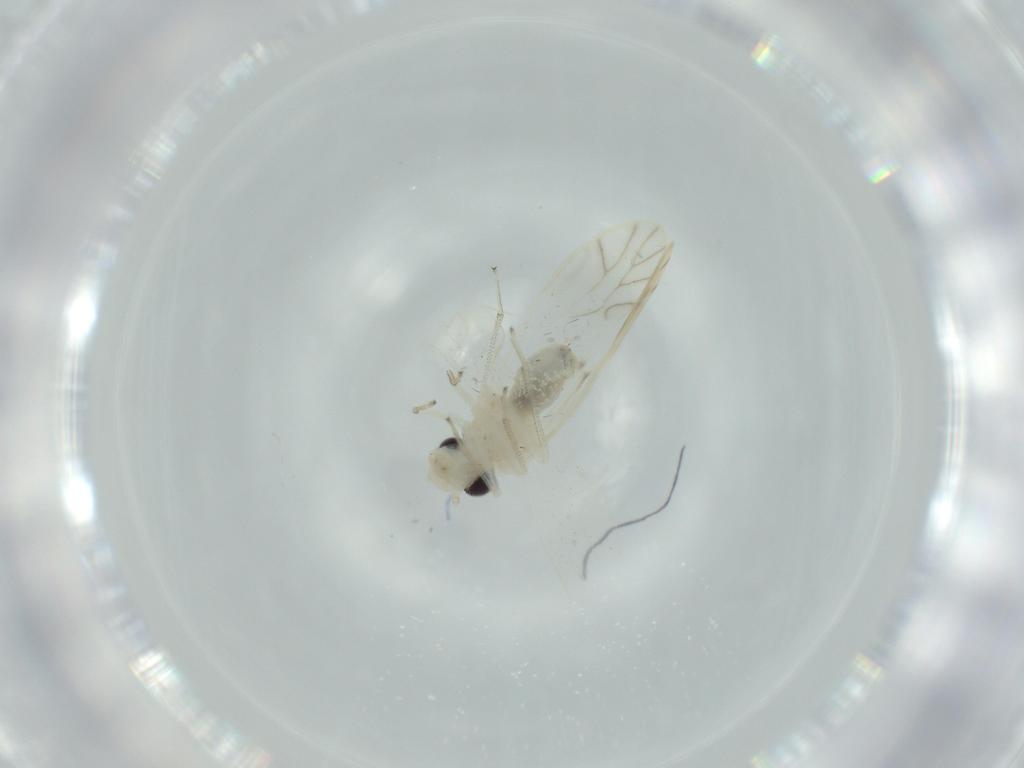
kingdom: Animalia
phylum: Arthropoda
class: Insecta
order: Psocodea
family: Caeciliusidae
